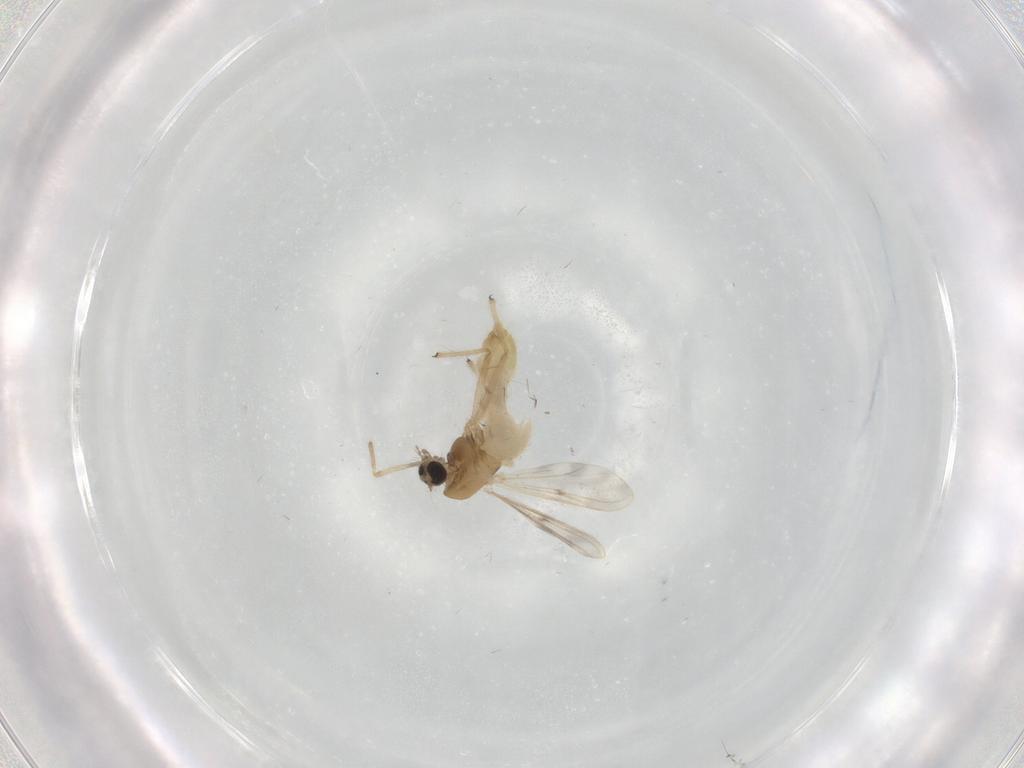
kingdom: Animalia
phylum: Arthropoda
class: Insecta
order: Diptera
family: Chironomidae
